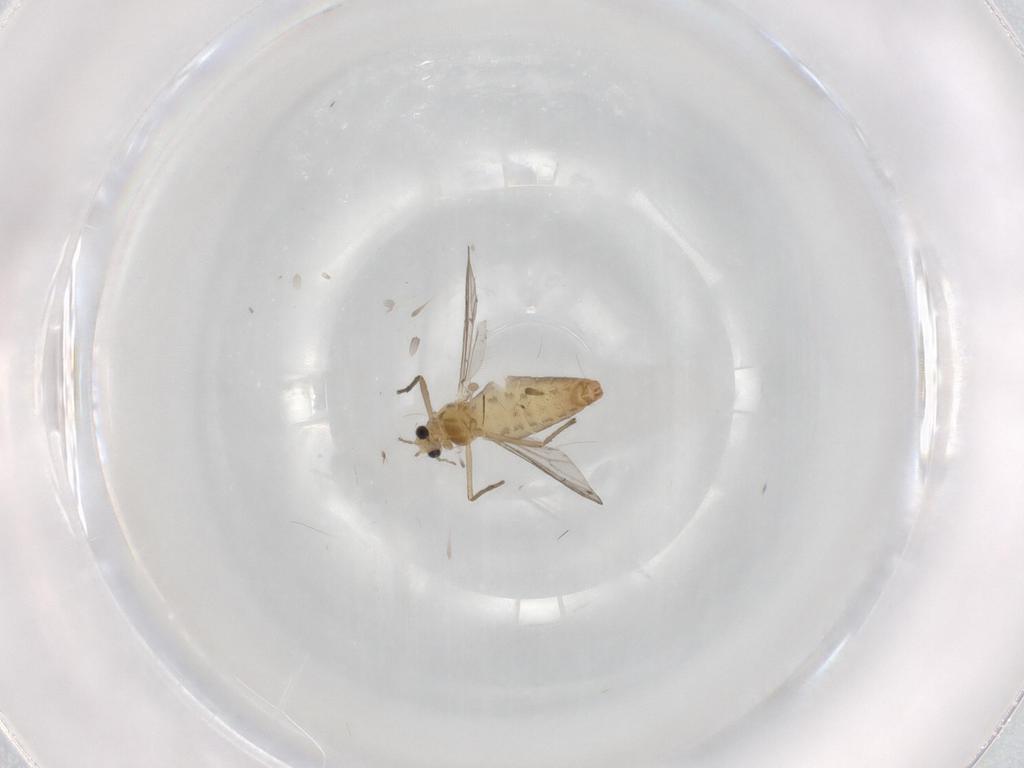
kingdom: Animalia
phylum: Arthropoda
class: Insecta
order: Diptera
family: Chironomidae
